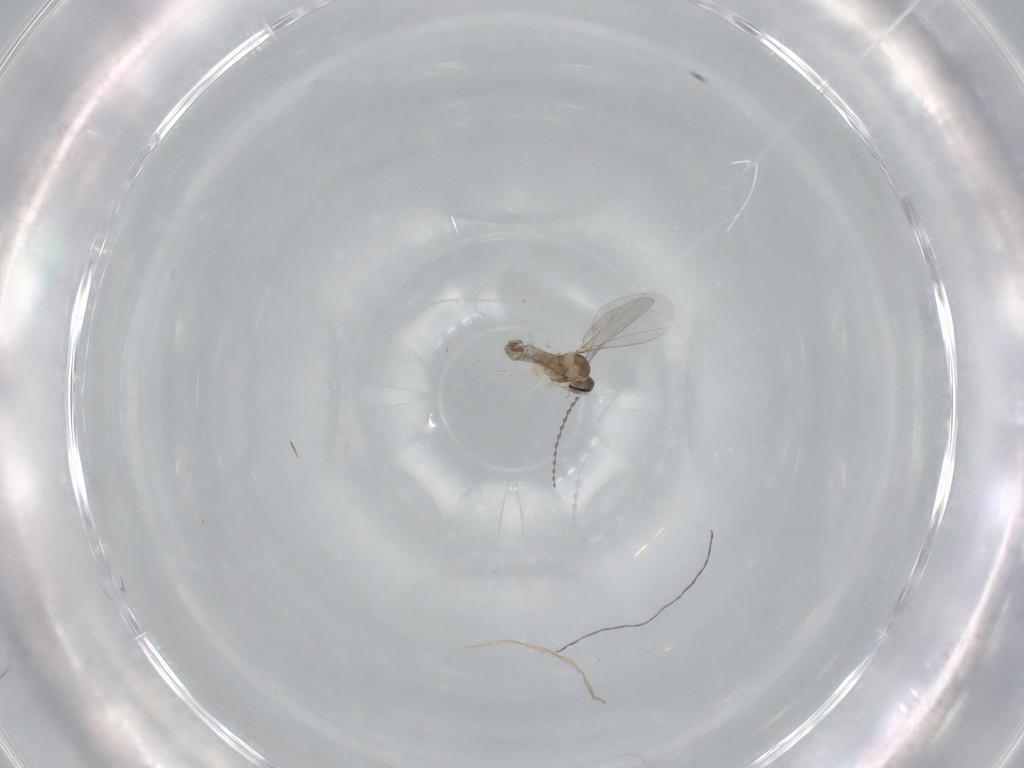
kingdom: Animalia
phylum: Arthropoda
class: Insecta
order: Diptera
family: Cecidomyiidae
